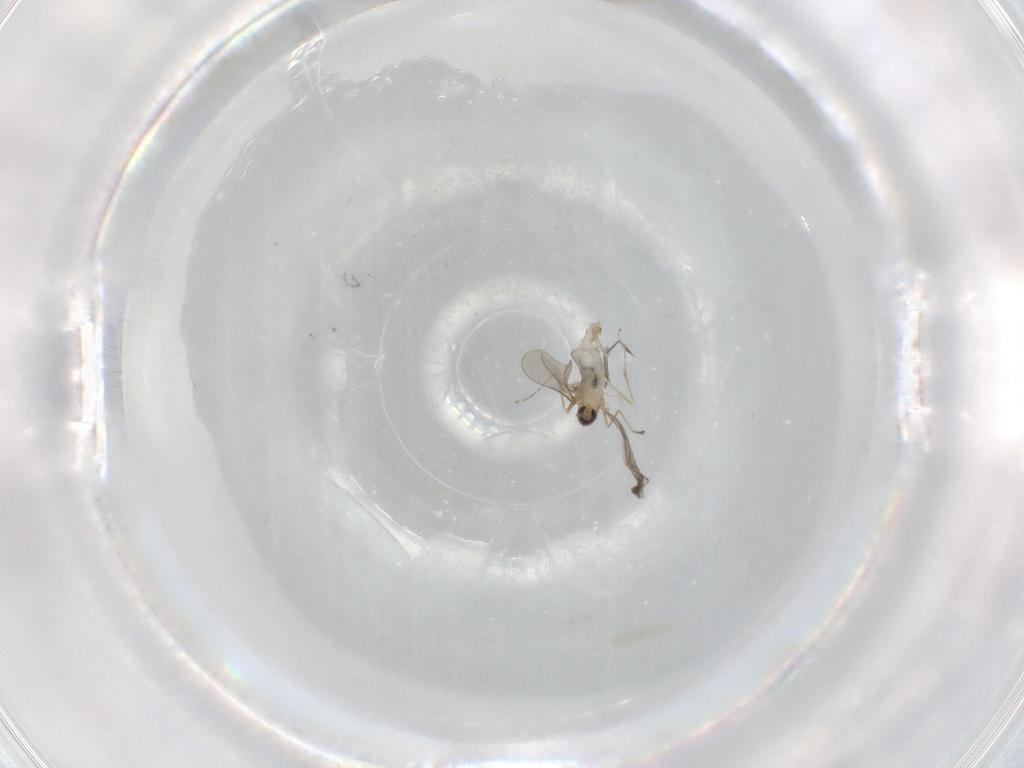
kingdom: Animalia
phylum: Arthropoda
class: Insecta
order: Diptera
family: Cecidomyiidae
